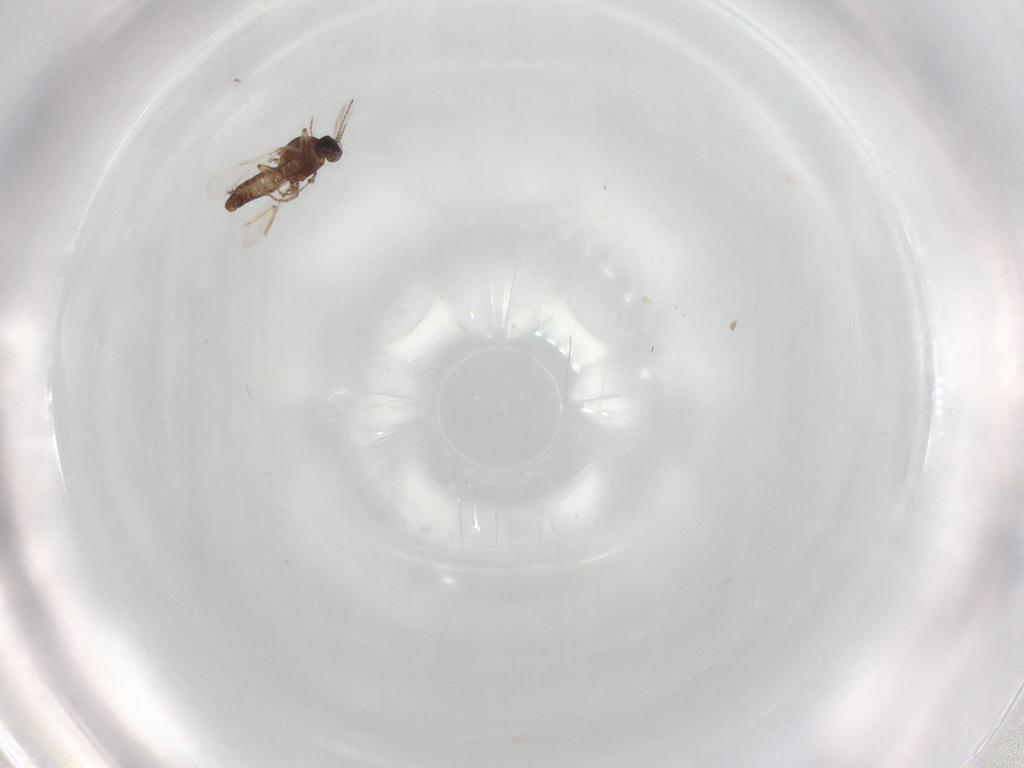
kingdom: Animalia
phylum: Arthropoda
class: Insecta
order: Diptera
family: Ceratopogonidae
